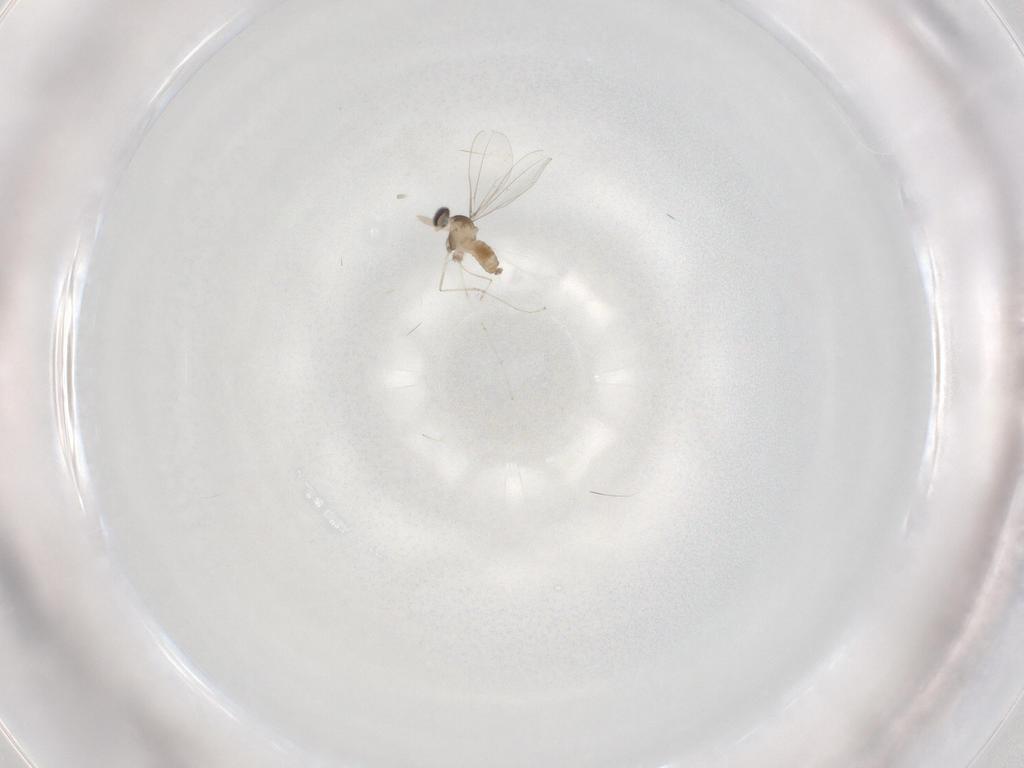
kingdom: Animalia
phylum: Arthropoda
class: Insecta
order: Diptera
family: Cecidomyiidae
